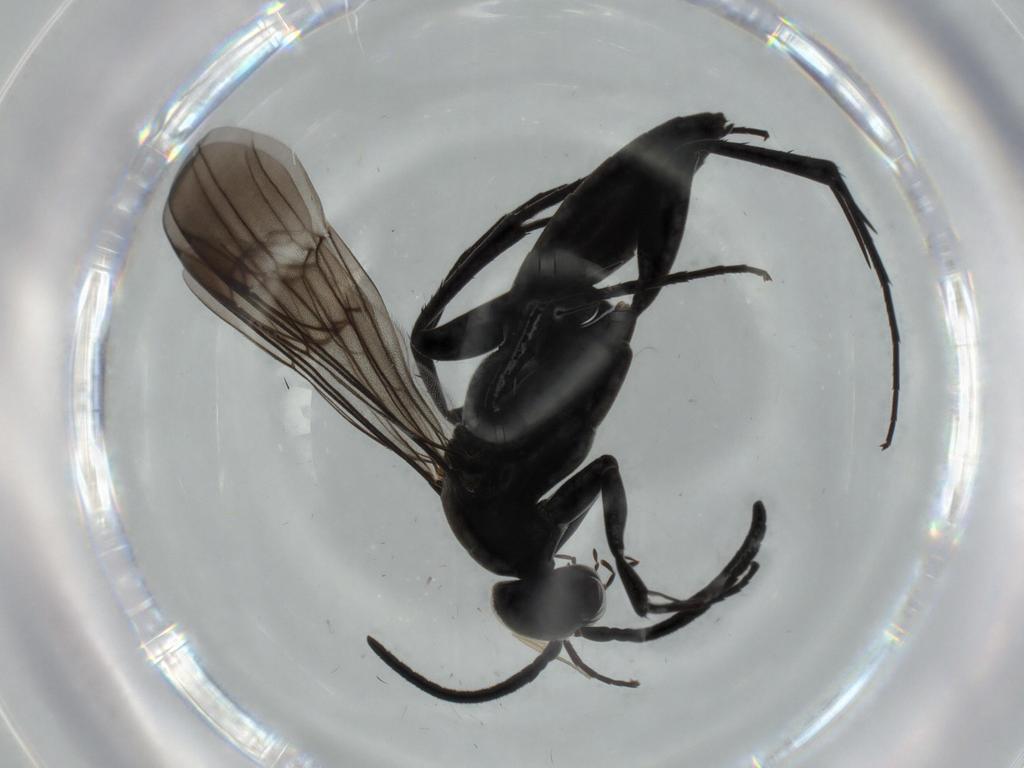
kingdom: Animalia
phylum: Arthropoda
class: Insecta
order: Hymenoptera
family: Pompilidae
